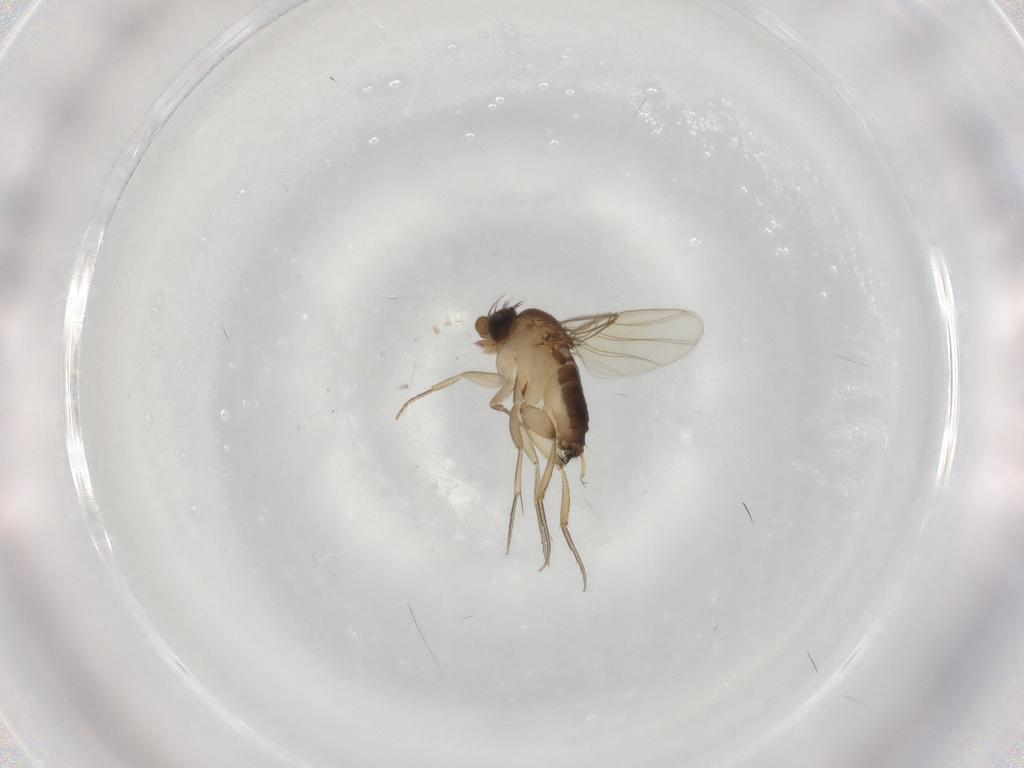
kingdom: Animalia
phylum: Arthropoda
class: Insecta
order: Diptera
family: Phoridae
